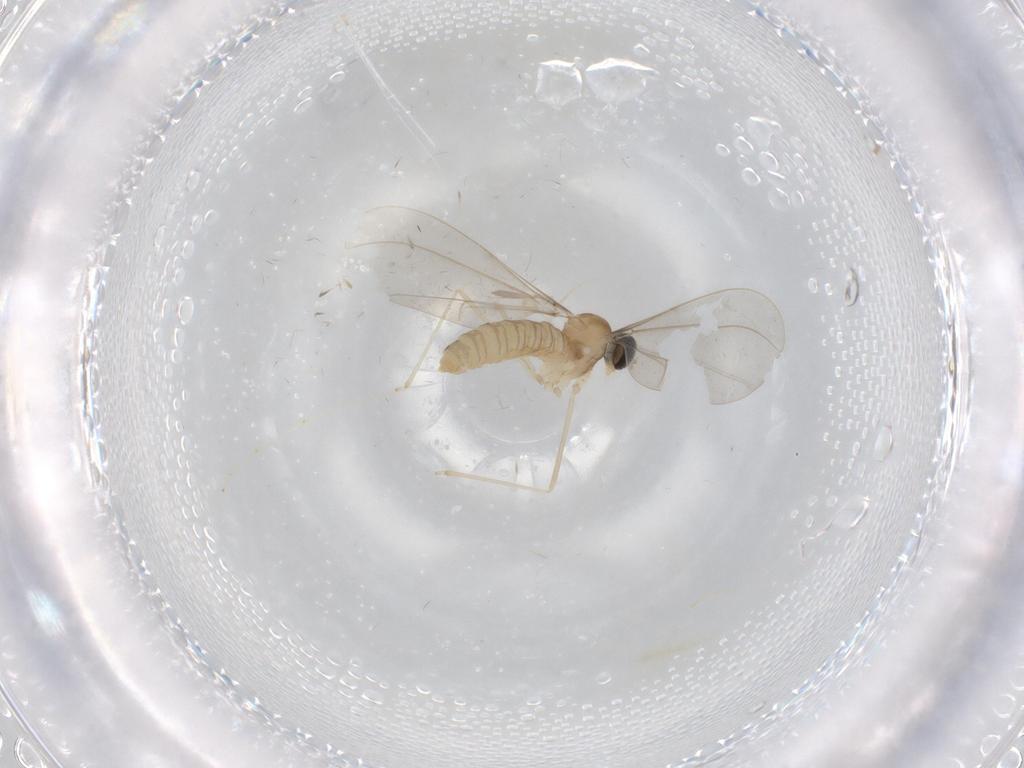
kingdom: Animalia
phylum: Arthropoda
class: Insecta
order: Diptera
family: Cecidomyiidae
